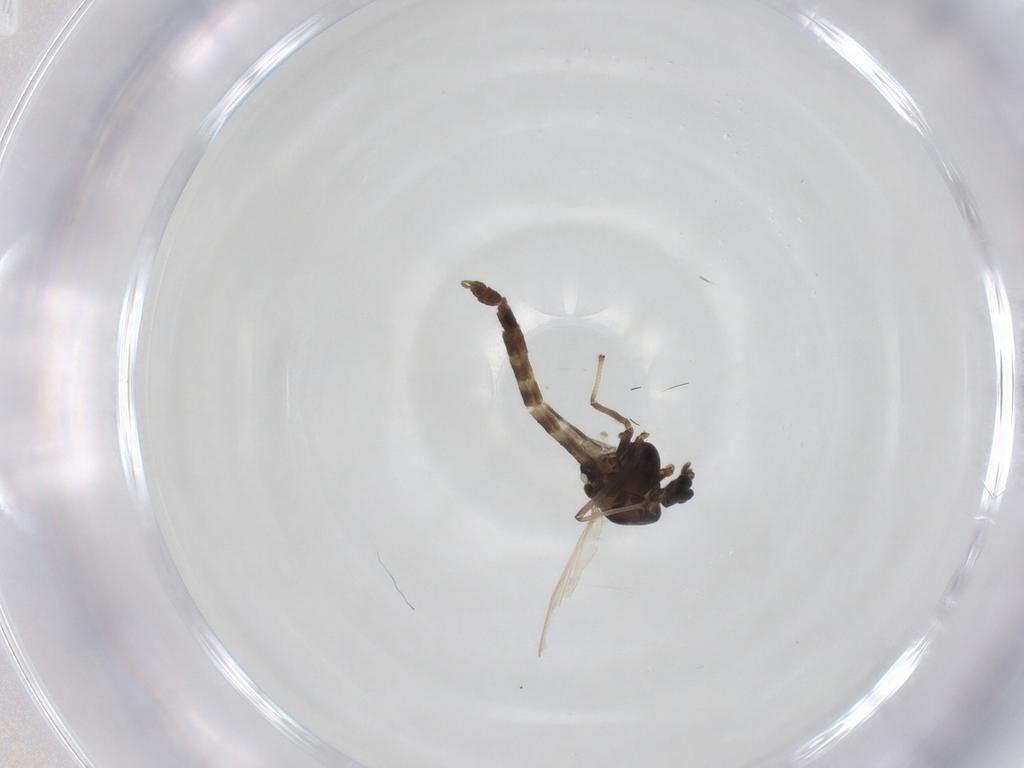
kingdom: Animalia
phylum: Arthropoda
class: Insecta
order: Diptera
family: Chironomidae
